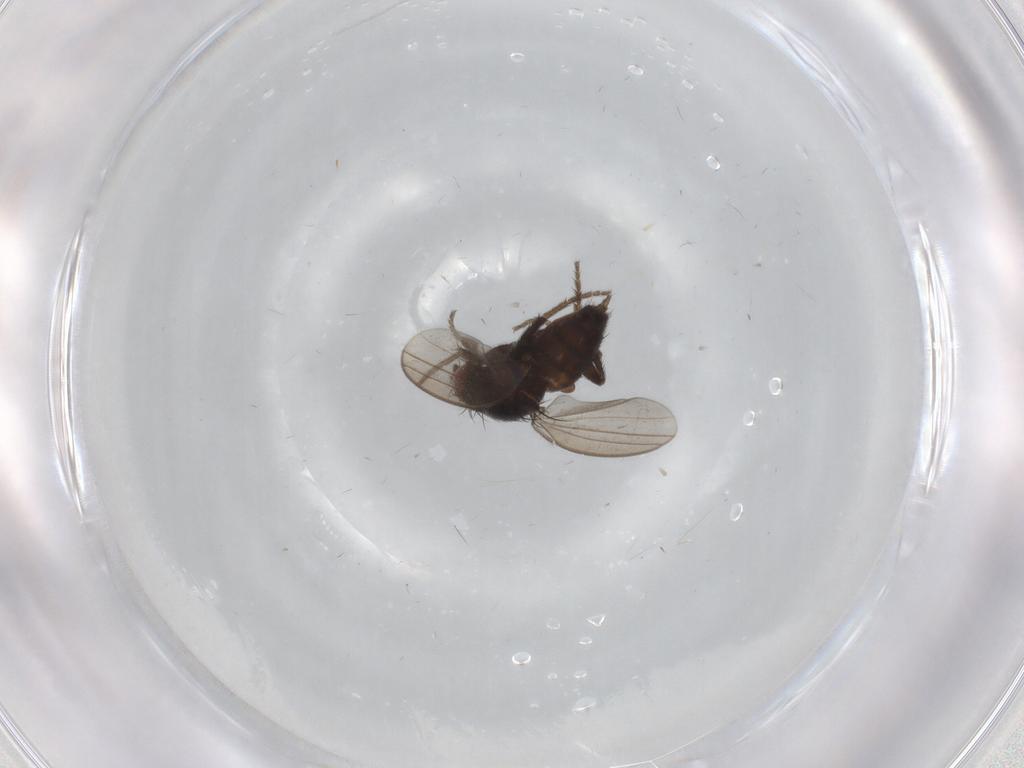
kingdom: Animalia
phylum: Arthropoda
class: Insecta
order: Diptera
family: Milichiidae
